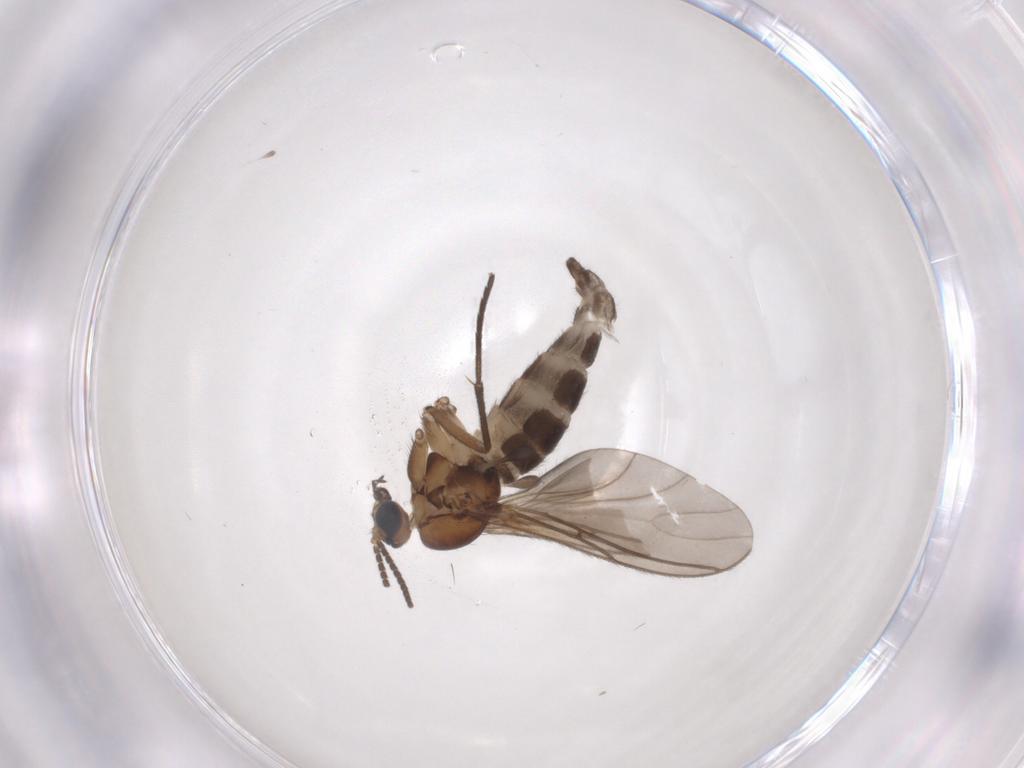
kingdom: Animalia
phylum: Arthropoda
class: Insecta
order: Diptera
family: Sciaridae
